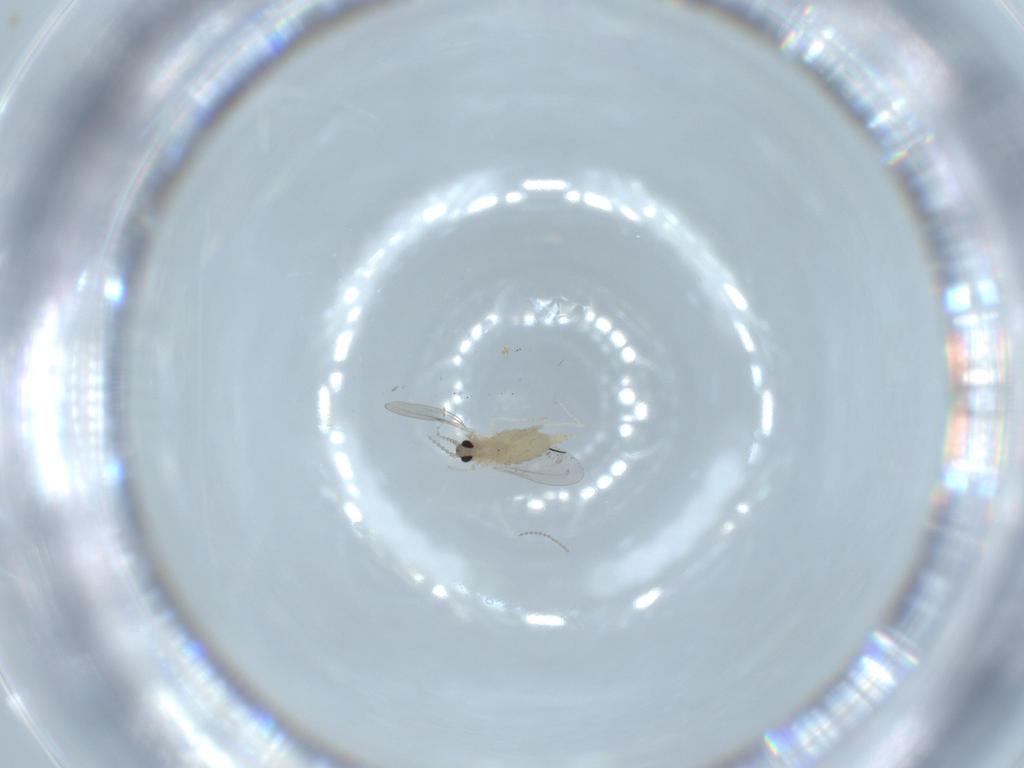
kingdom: Animalia
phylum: Arthropoda
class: Insecta
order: Diptera
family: Cecidomyiidae
